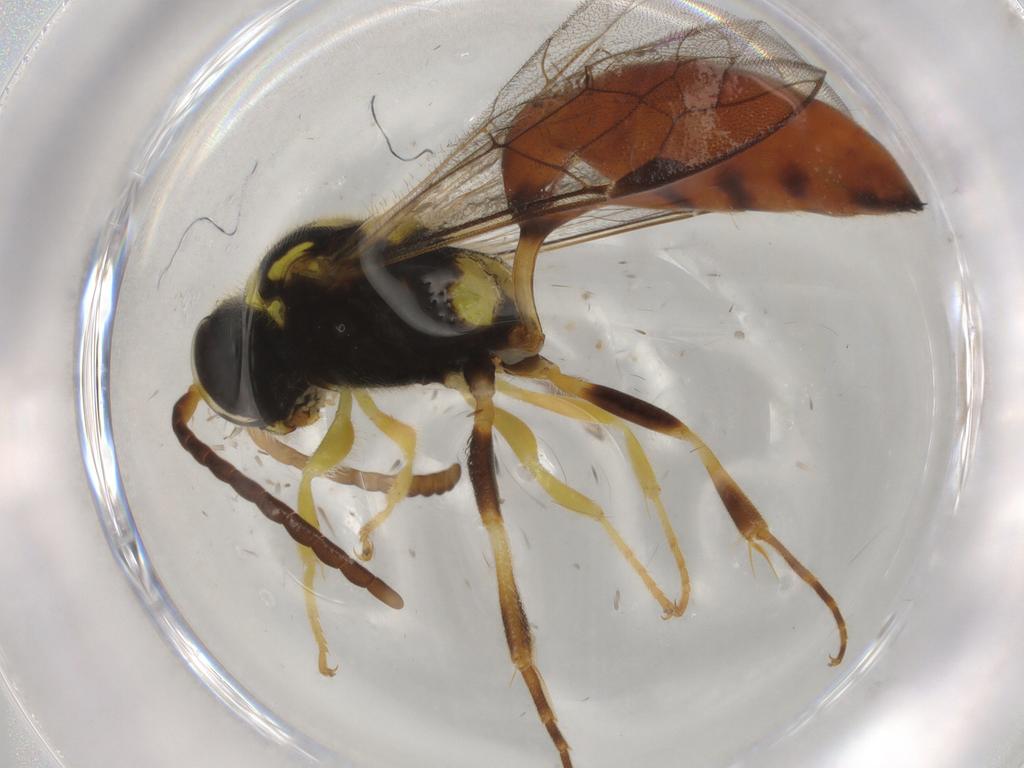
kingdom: Animalia
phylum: Arthropoda
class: Insecta
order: Hymenoptera
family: Crabronidae
